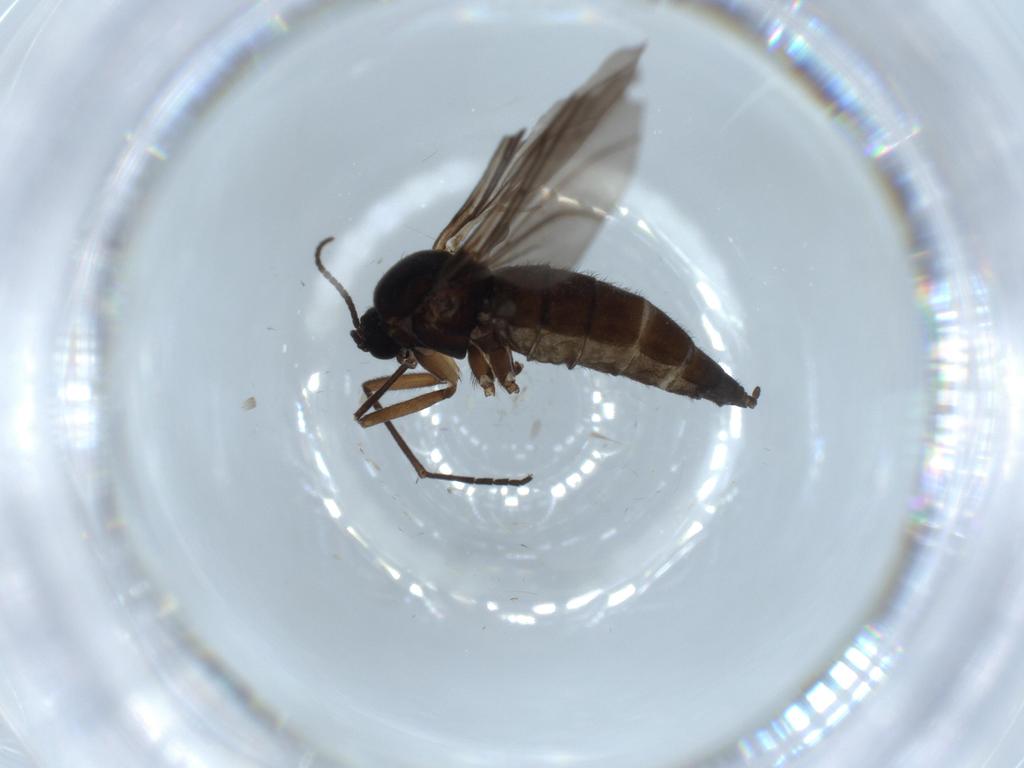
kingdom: Animalia
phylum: Arthropoda
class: Insecta
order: Diptera
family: Sciaridae
